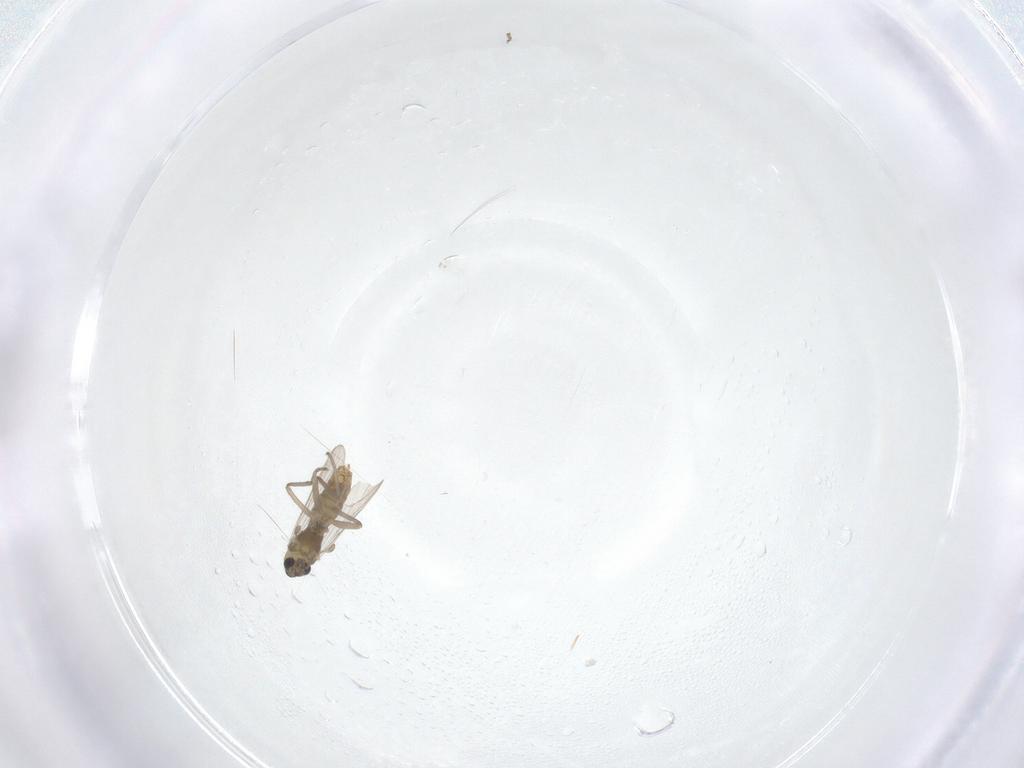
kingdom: Animalia
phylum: Arthropoda
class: Insecta
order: Diptera
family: Chironomidae
